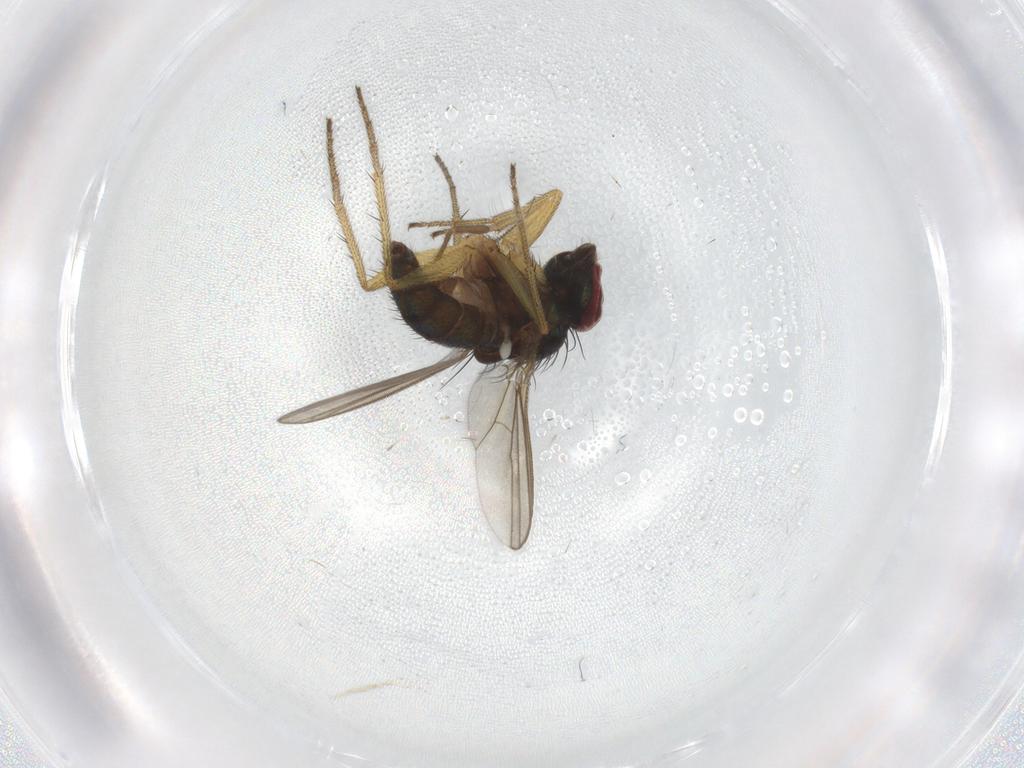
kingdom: Animalia
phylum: Arthropoda
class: Insecta
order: Diptera
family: Dolichopodidae
